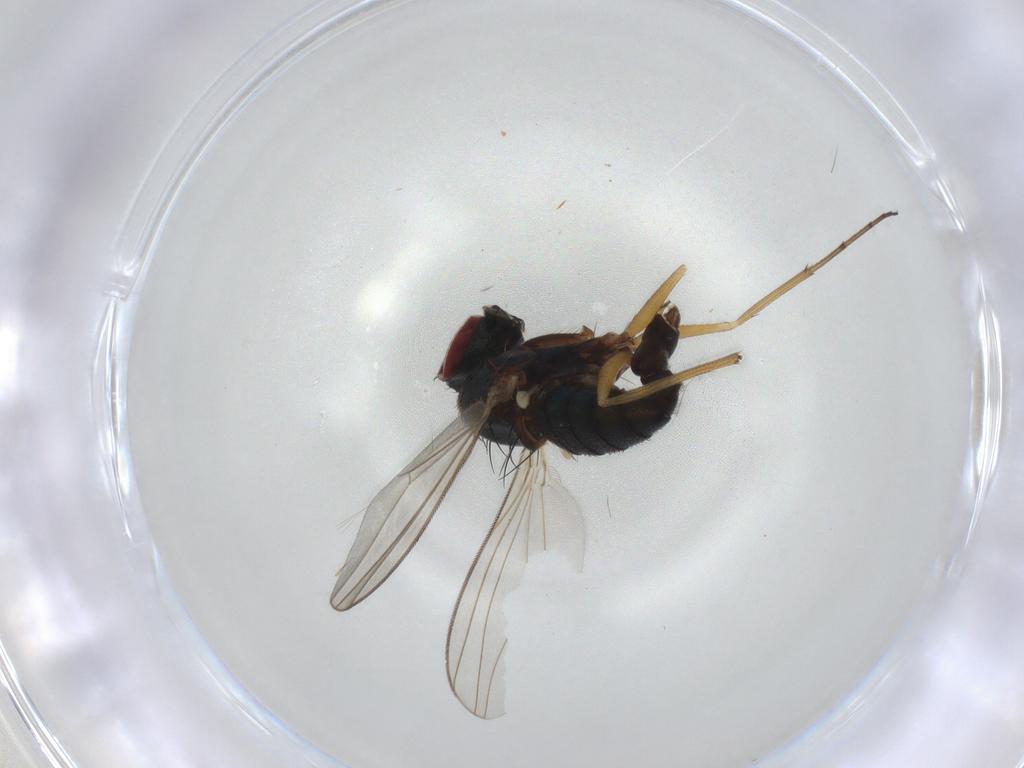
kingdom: Animalia
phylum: Arthropoda
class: Insecta
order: Diptera
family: Dolichopodidae
